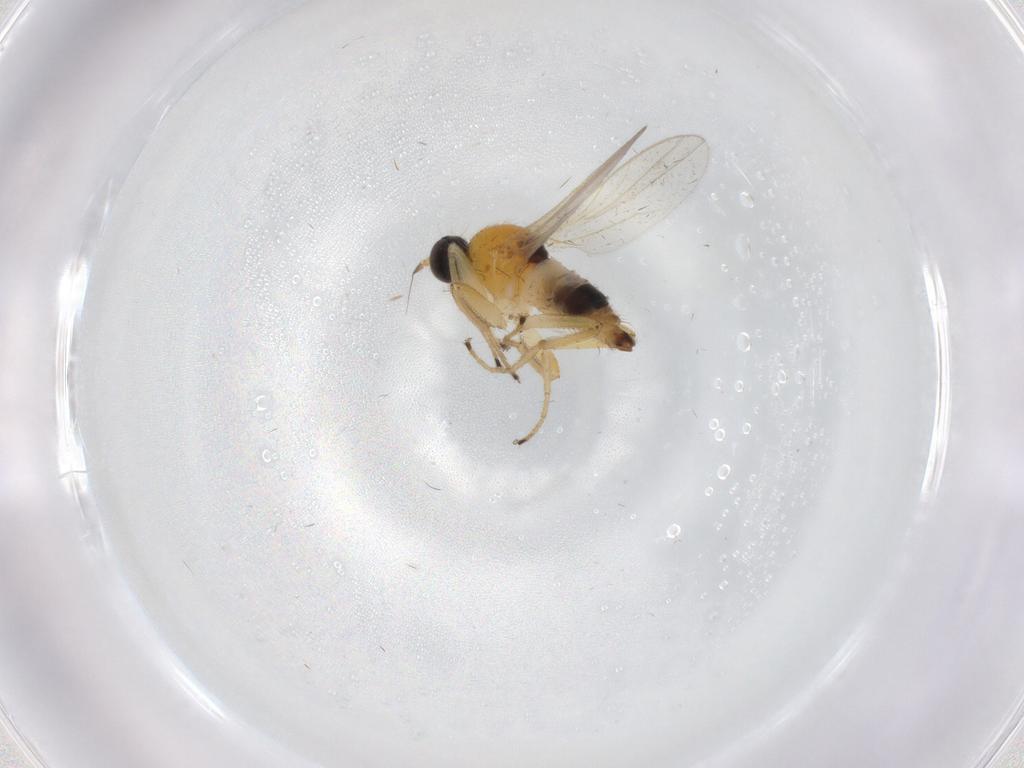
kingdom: Animalia
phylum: Arthropoda
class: Insecta
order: Diptera
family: Hybotidae
